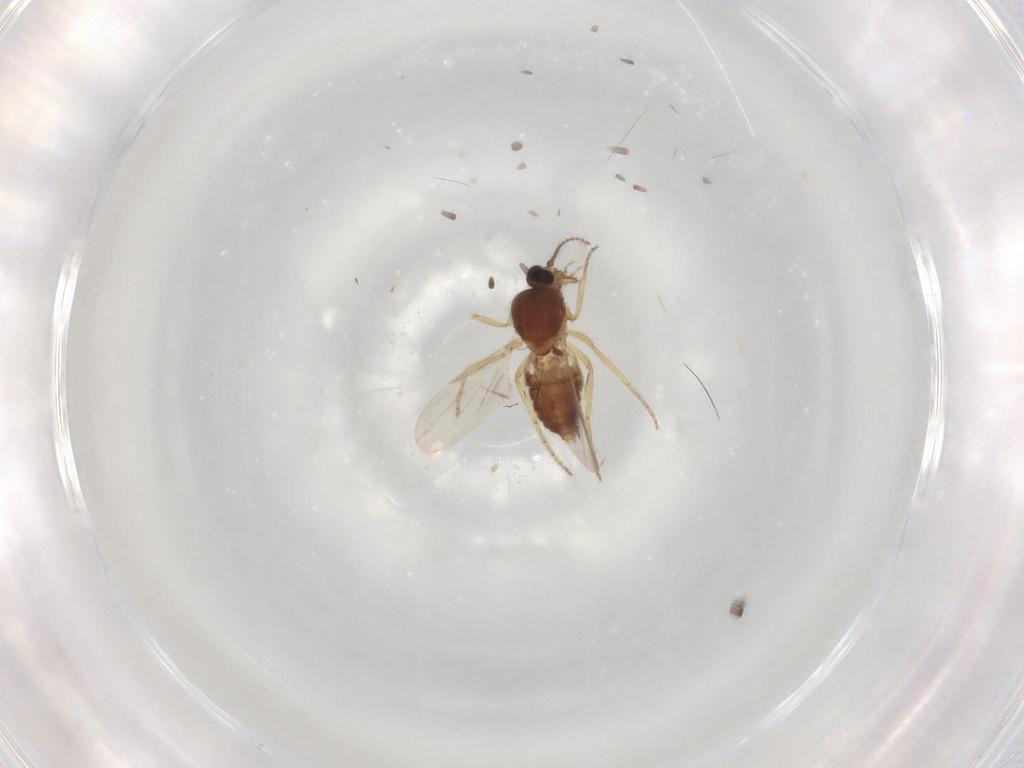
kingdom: Animalia
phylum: Arthropoda
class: Insecta
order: Diptera
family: Ceratopogonidae
